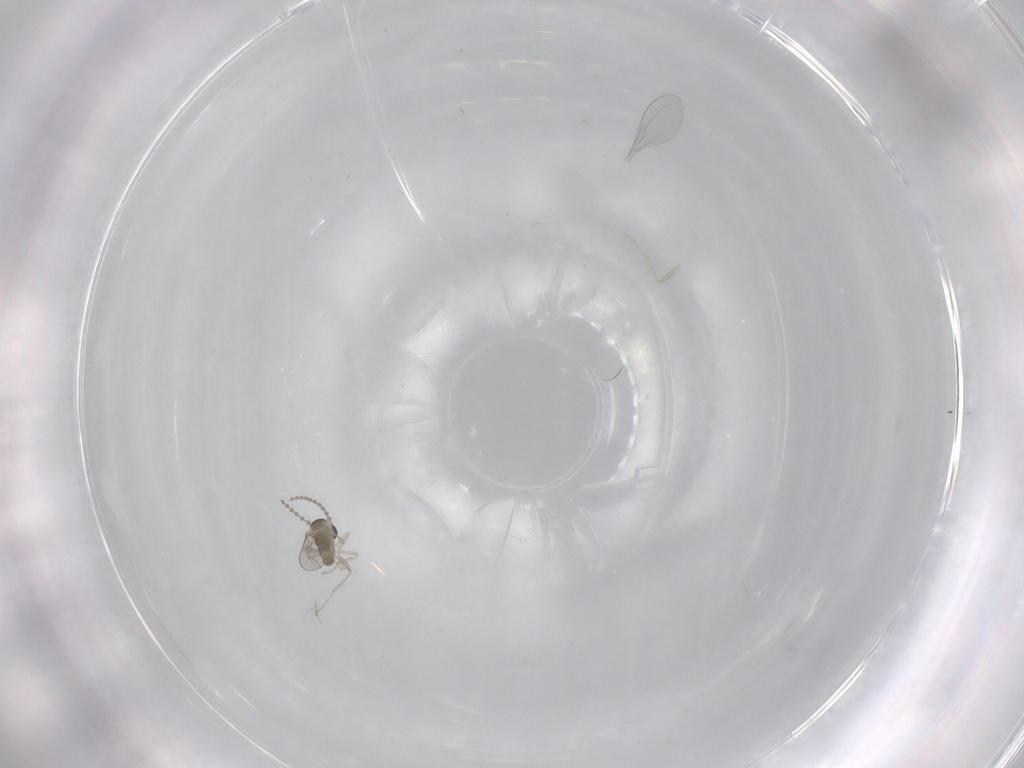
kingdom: Animalia
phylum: Arthropoda
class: Insecta
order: Diptera
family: Cecidomyiidae
